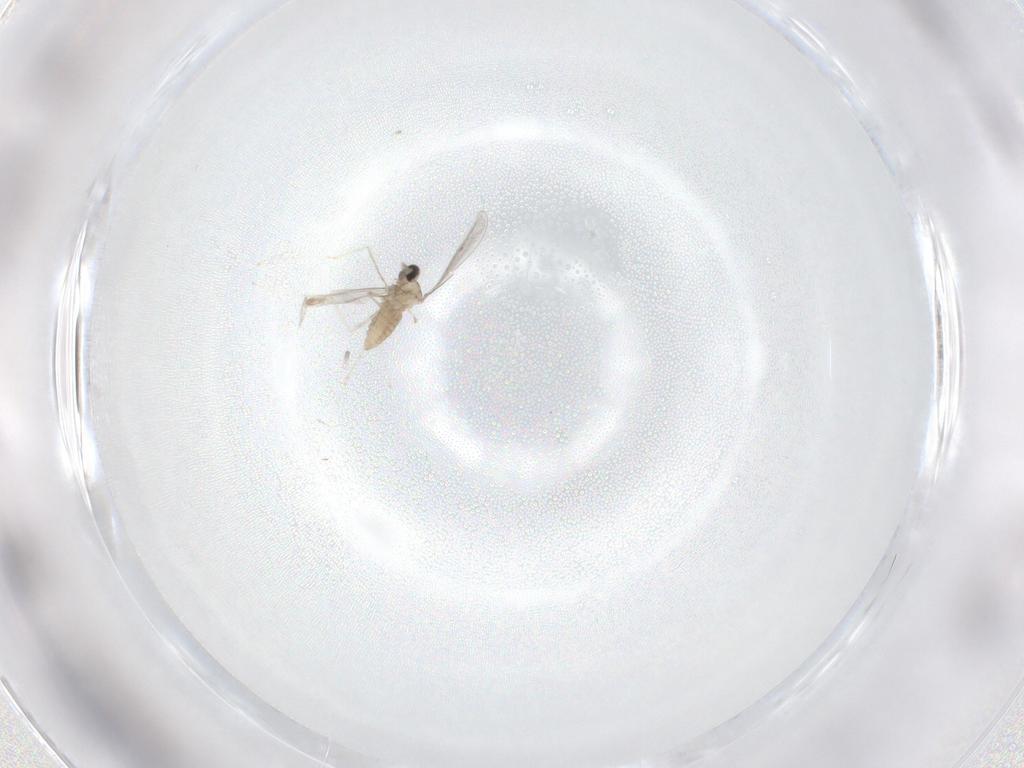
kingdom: Animalia
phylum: Arthropoda
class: Insecta
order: Diptera
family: Cecidomyiidae
